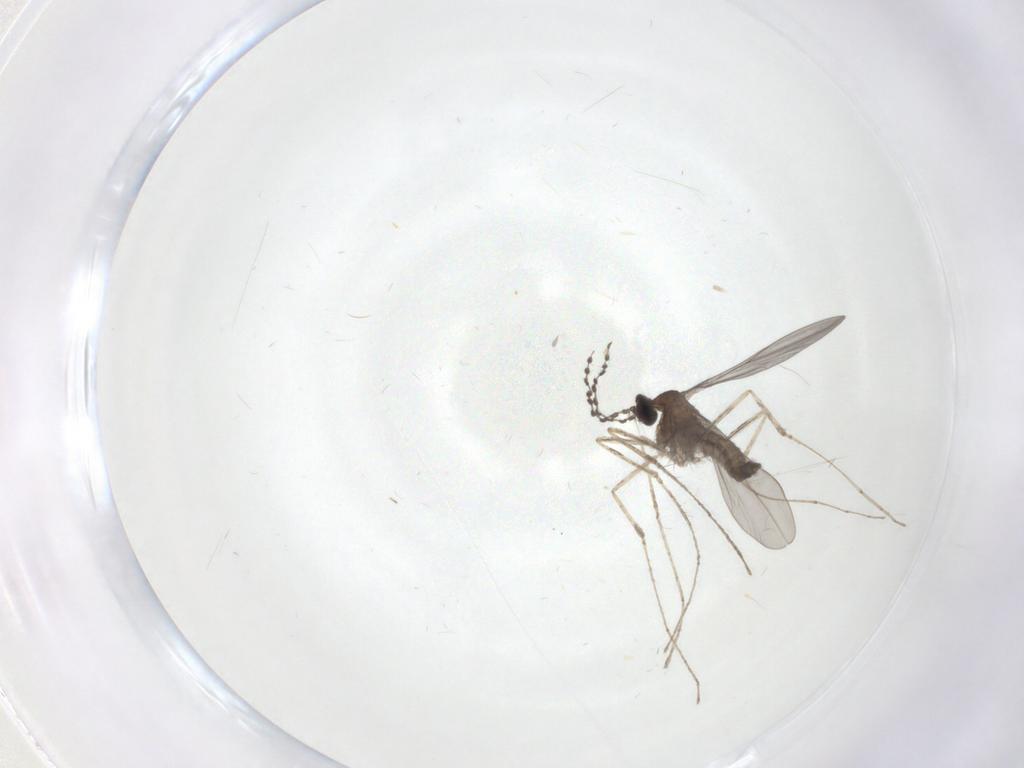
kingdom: Animalia
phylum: Arthropoda
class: Insecta
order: Diptera
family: Cecidomyiidae
